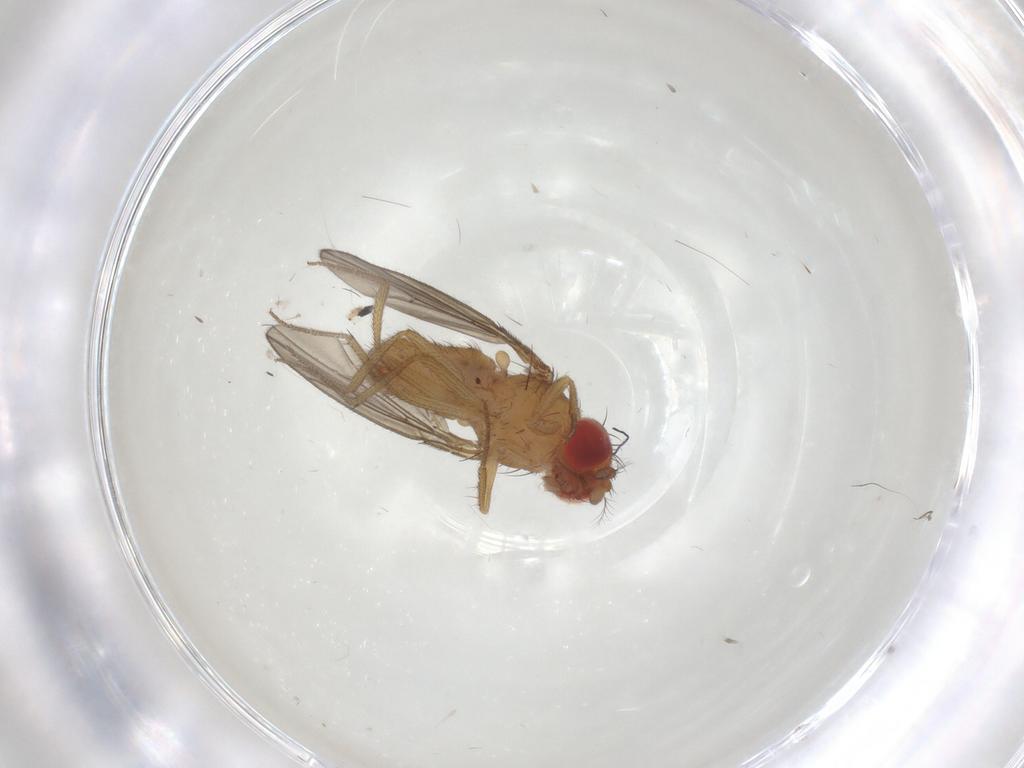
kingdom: Animalia
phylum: Arthropoda
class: Insecta
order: Diptera
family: Drosophilidae
